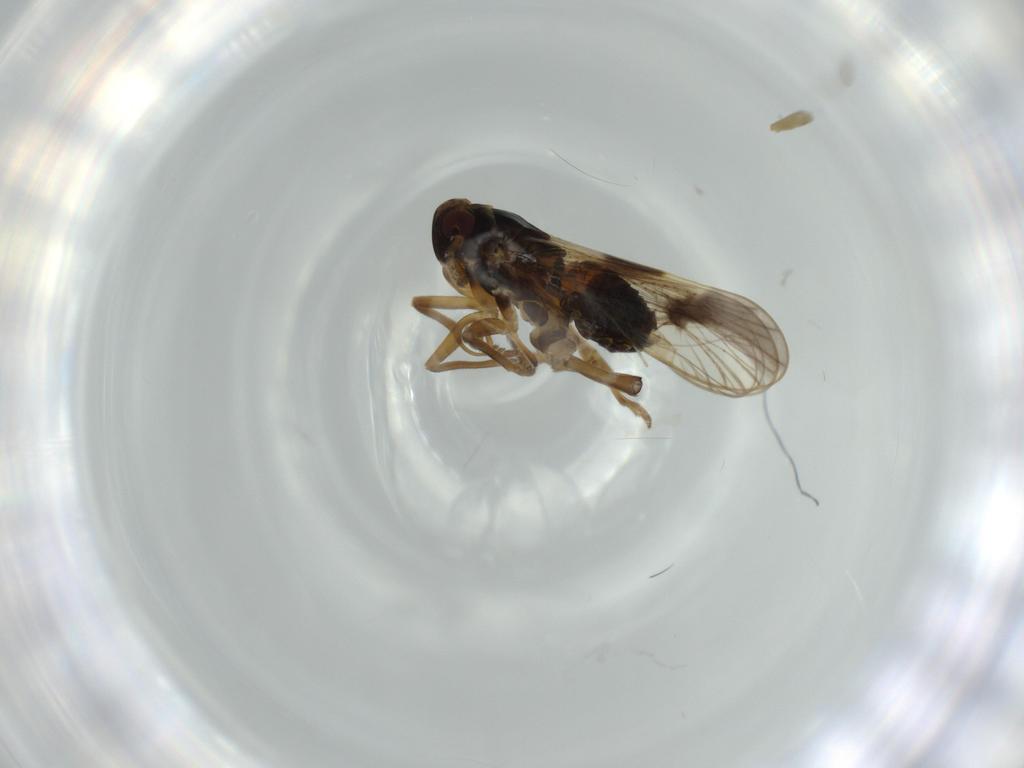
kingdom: Animalia
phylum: Arthropoda
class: Insecta
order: Hemiptera
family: Delphacidae
